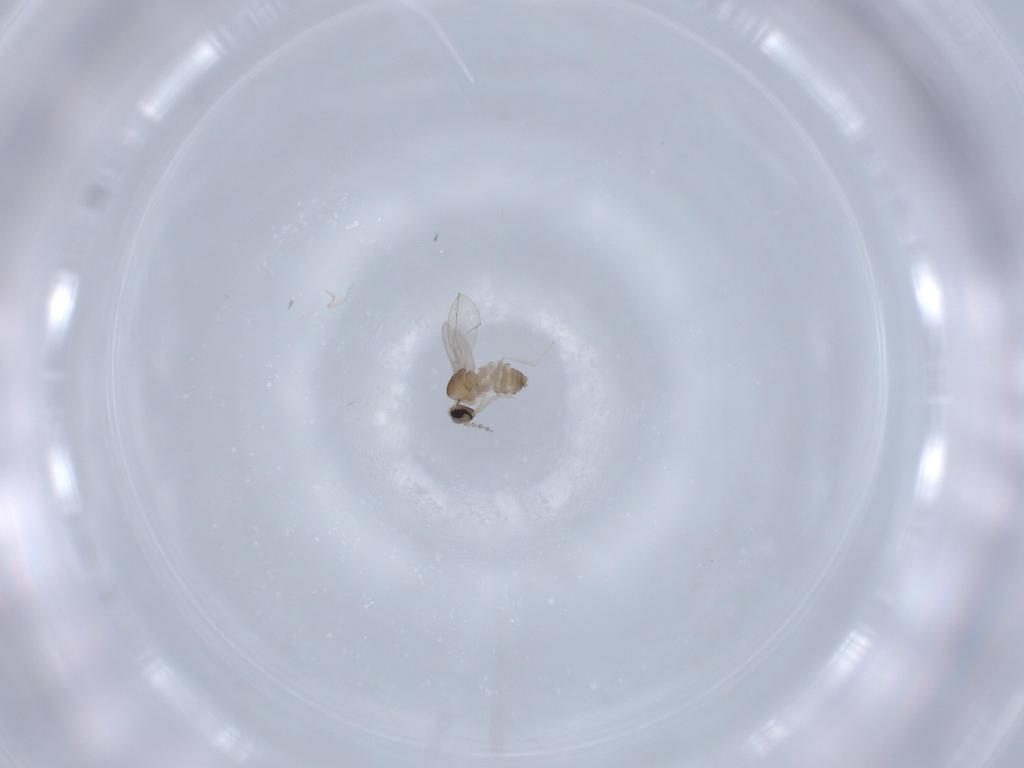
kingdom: Animalia
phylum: Arthropoda
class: Insecta
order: Diptera
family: Cecidomyiidae
